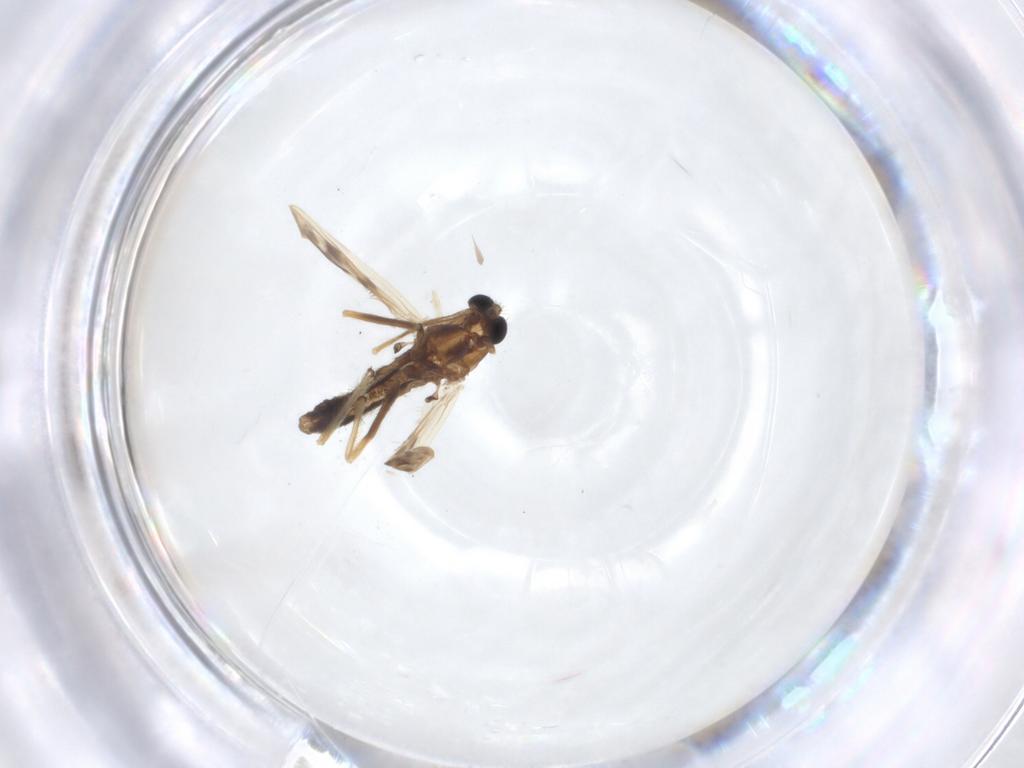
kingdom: Animalia
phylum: Arthropoda
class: Insecta
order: Diptera
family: Chironomidae
